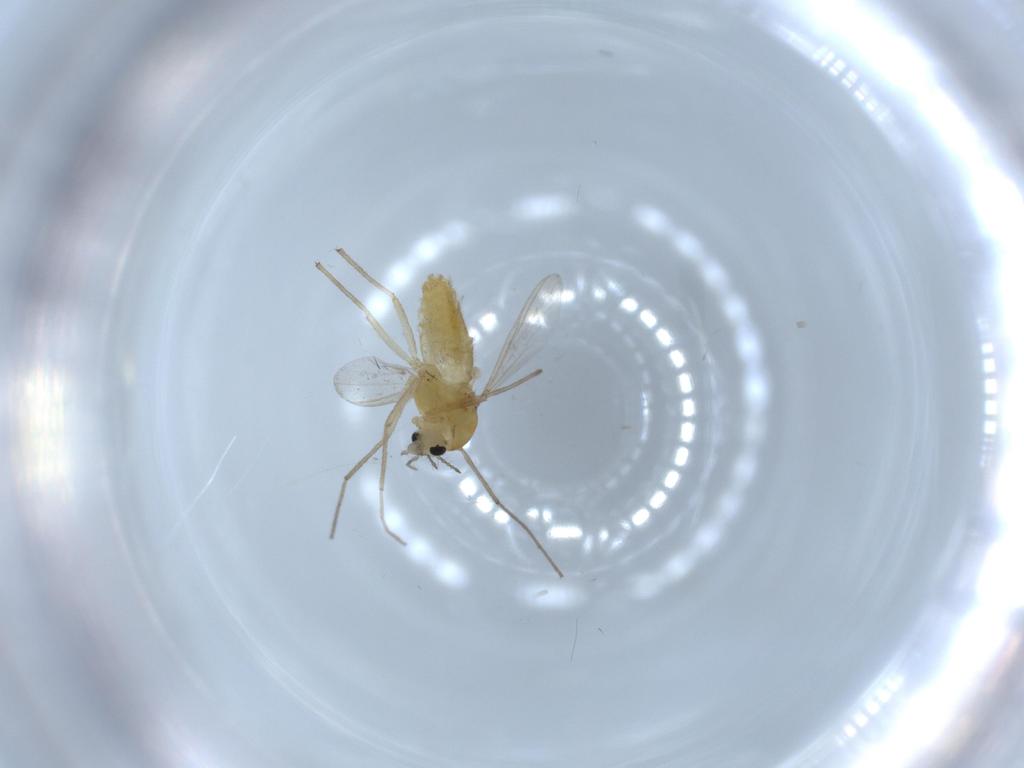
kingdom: Animalia
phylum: Arthropoda
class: Insecta
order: Diptera
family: Chironomidae
